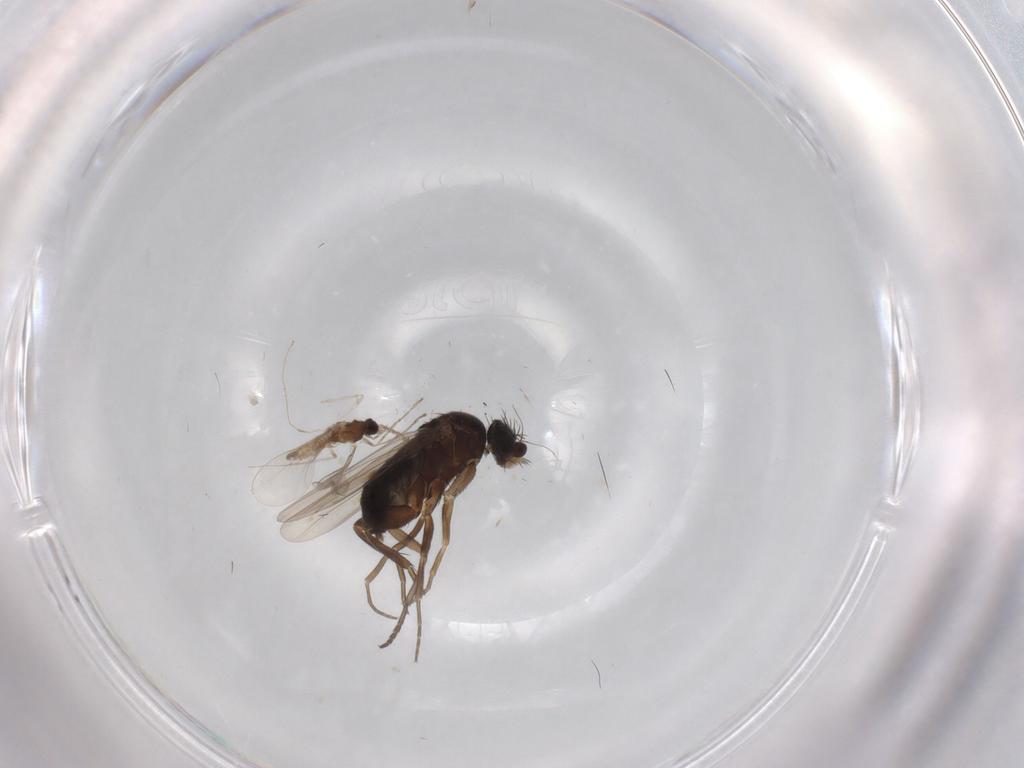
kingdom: Animalia
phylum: Arthropoda
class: Insecta
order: Diptera
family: Cecidomyiidae
